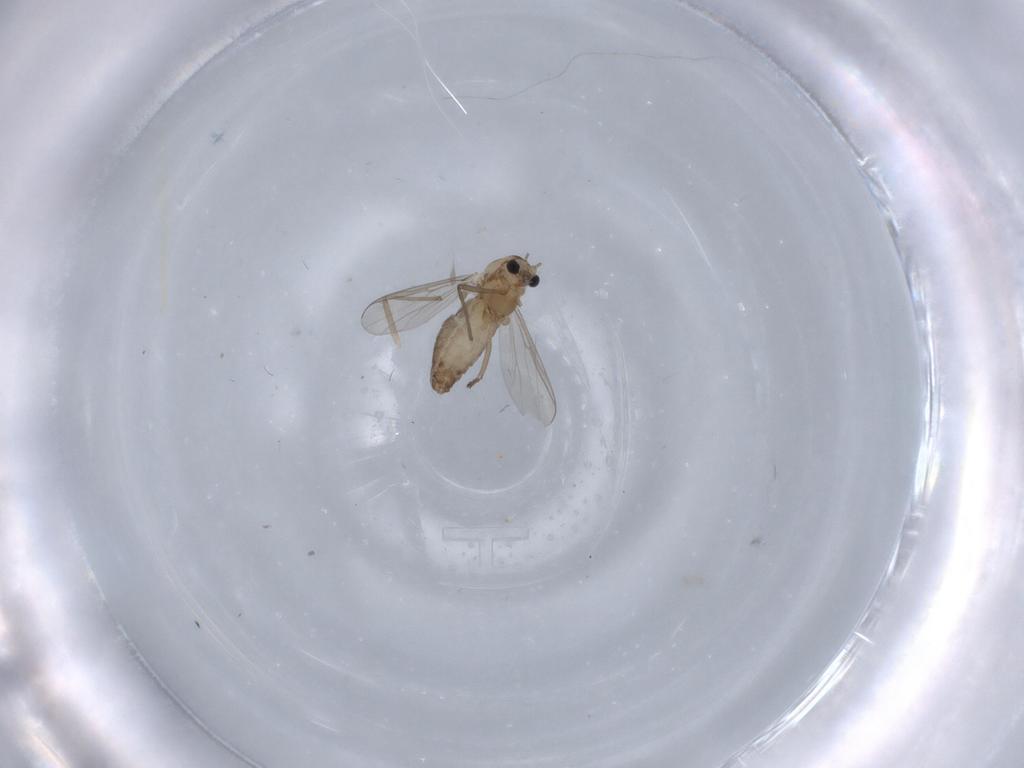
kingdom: Animalia
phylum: Arthropoda
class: Insecta
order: Diptera
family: Chironomidae
